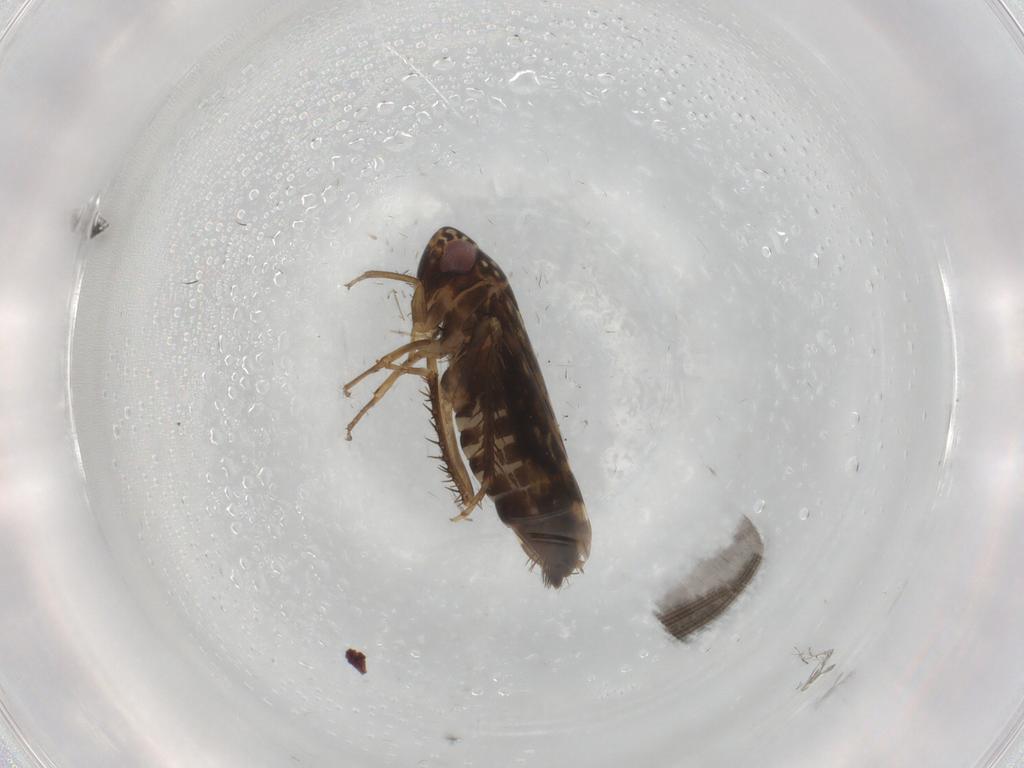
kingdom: Animalia
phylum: Arthropoda
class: Insecta
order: Hemiptera
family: Cicadellidae
